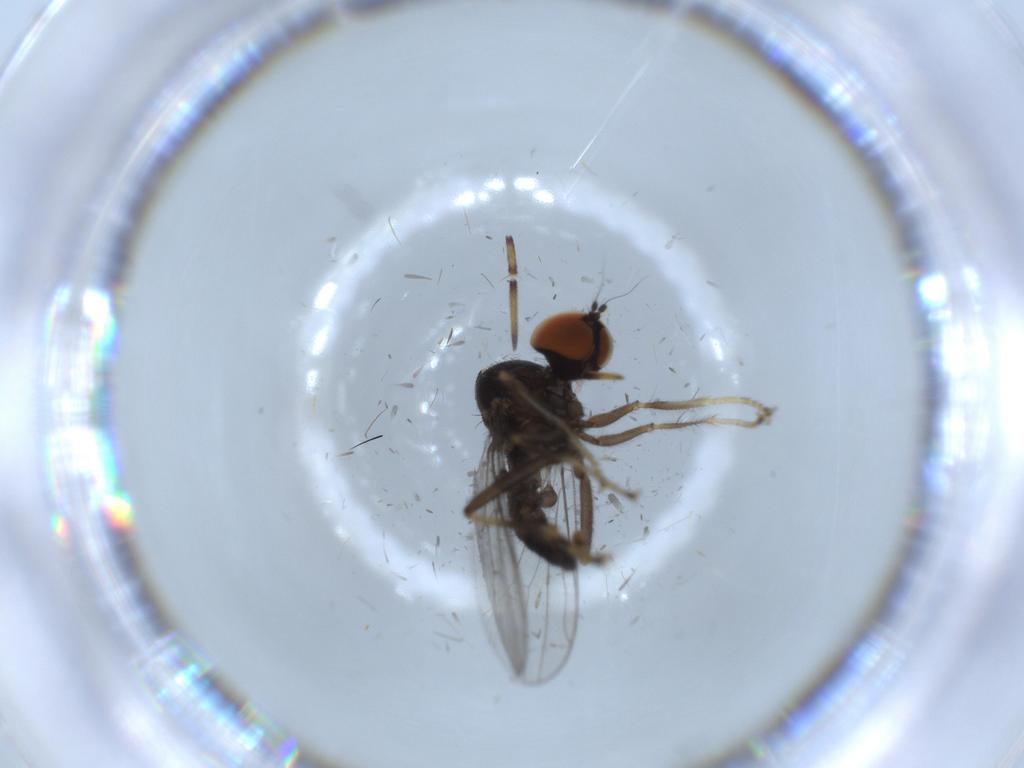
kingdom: Animalia
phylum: Arthropoda
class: Insecta
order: Diptera
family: Hybotidae
